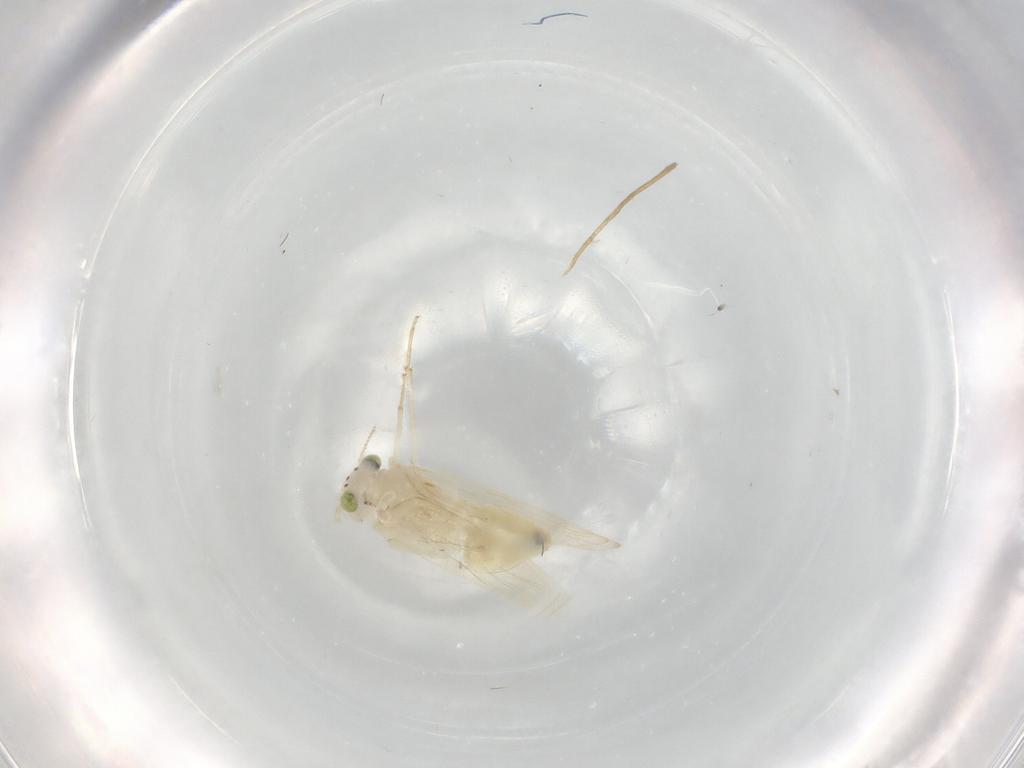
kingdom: Animalia
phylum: Arthropoda
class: Insecta
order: Psocodea
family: Lepidopsocidae
